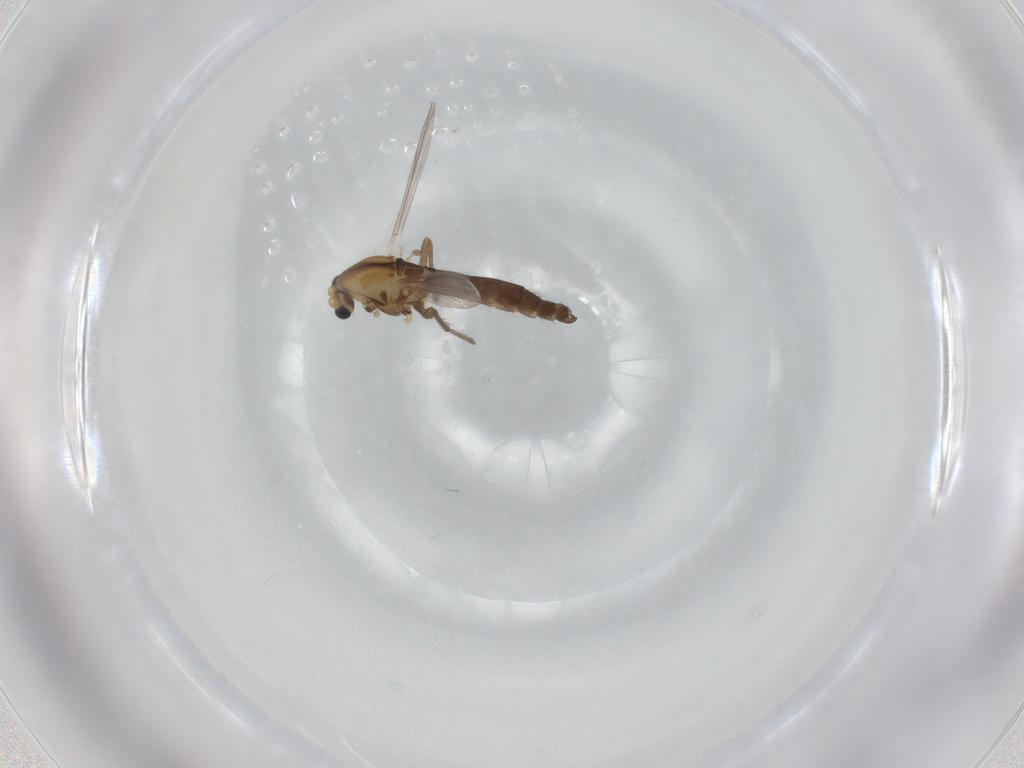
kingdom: Animalia
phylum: Arthropoda
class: Insecta
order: Diptera
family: Chironomidae
